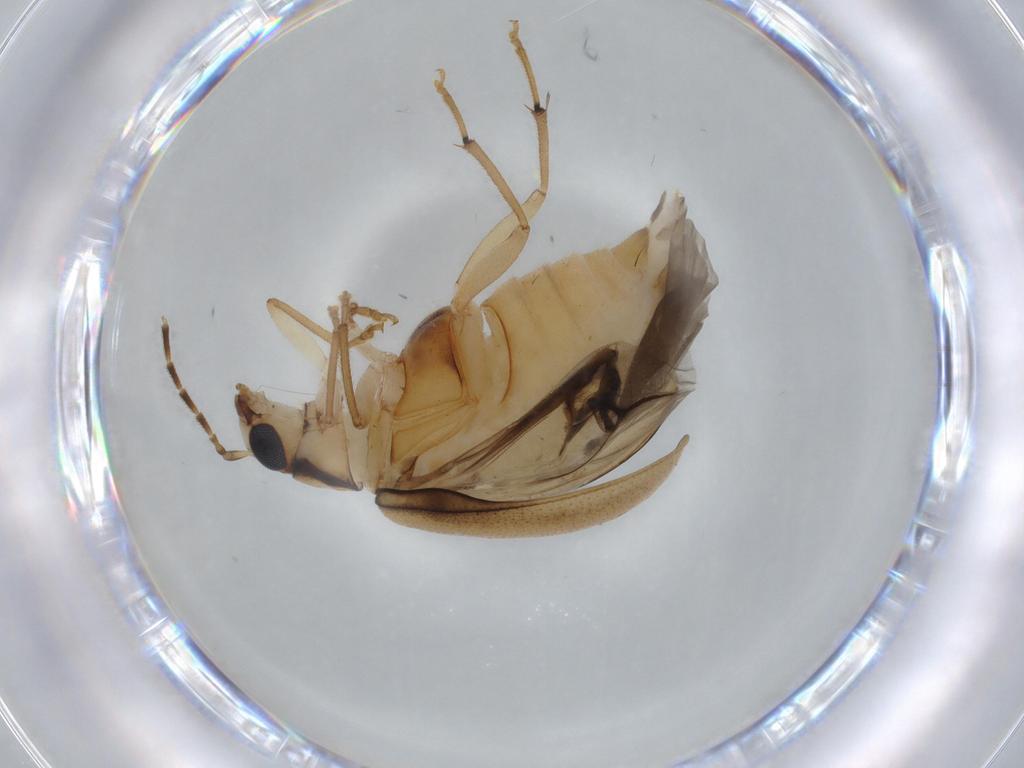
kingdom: Animalia
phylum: Arthropoda
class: Insecta
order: Coleoptera
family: Chrysomelidae
